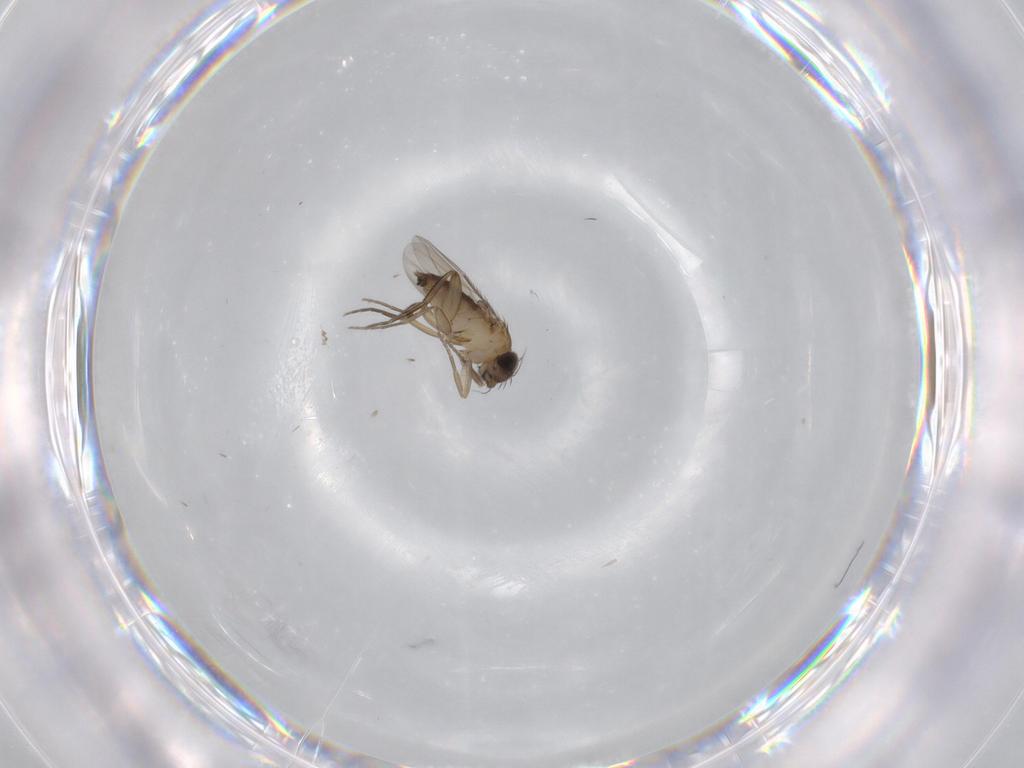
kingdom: Animalia
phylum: Arthropoda
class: Insecta
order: Diptera
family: Phoridae
